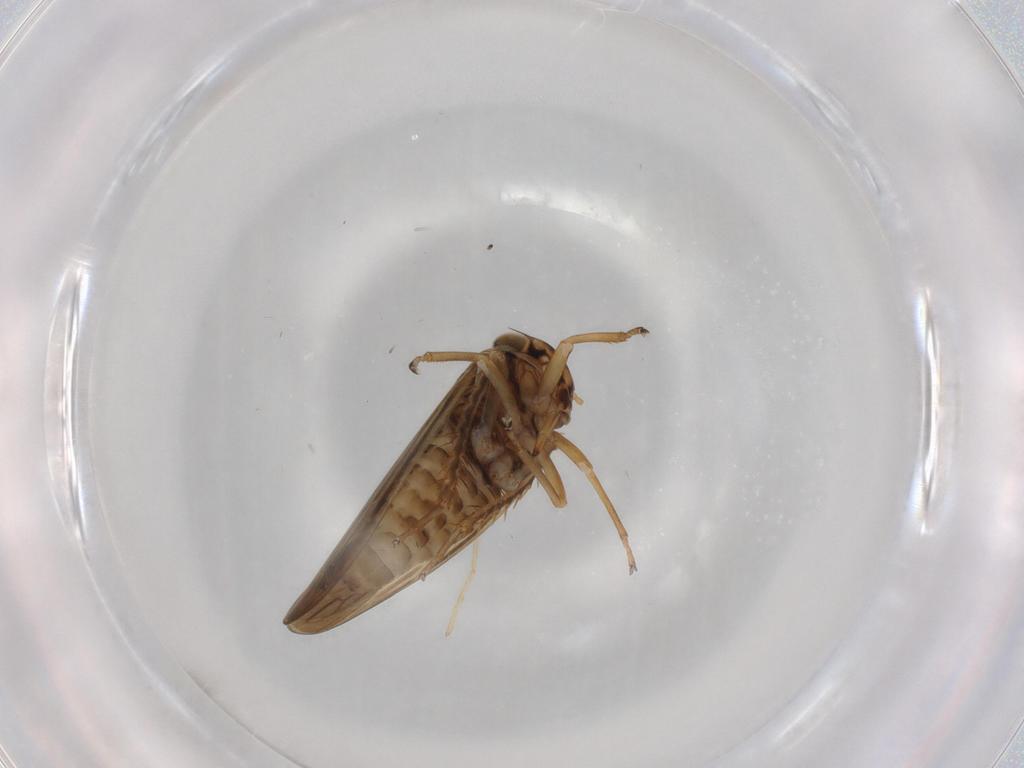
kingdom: Animalia
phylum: Arthropoda
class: Insecta
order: Hemiptera
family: Cicadellidae
